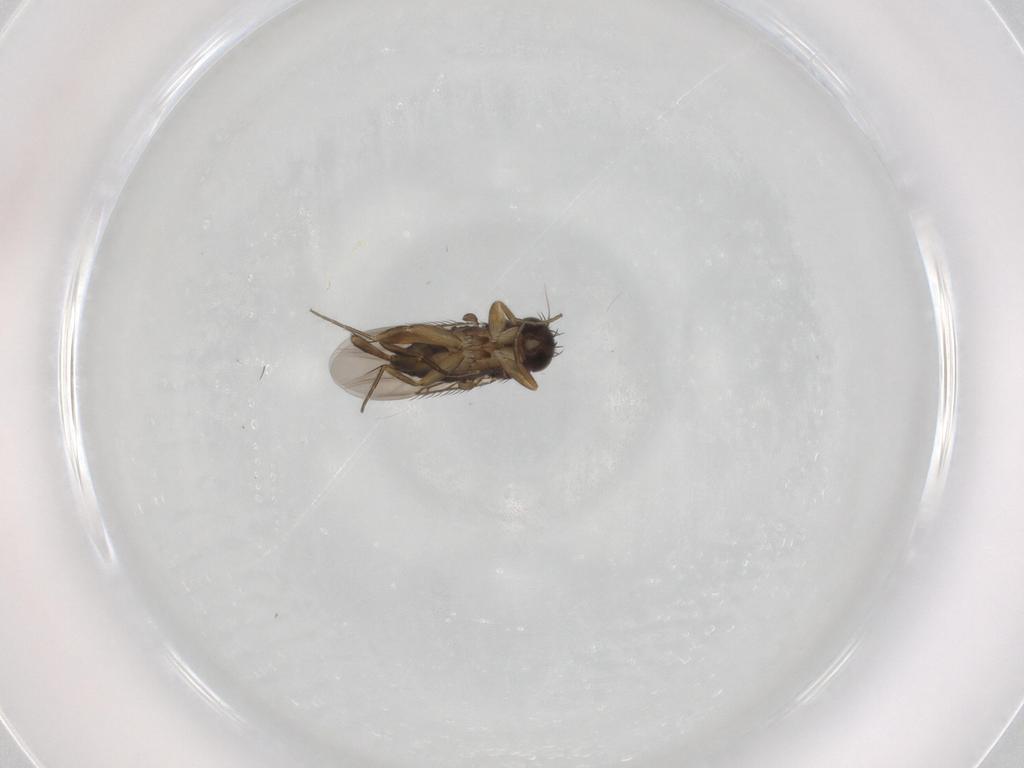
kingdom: Animalia
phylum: Arthropoda
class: Insecta
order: Diptera
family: Phoridae
